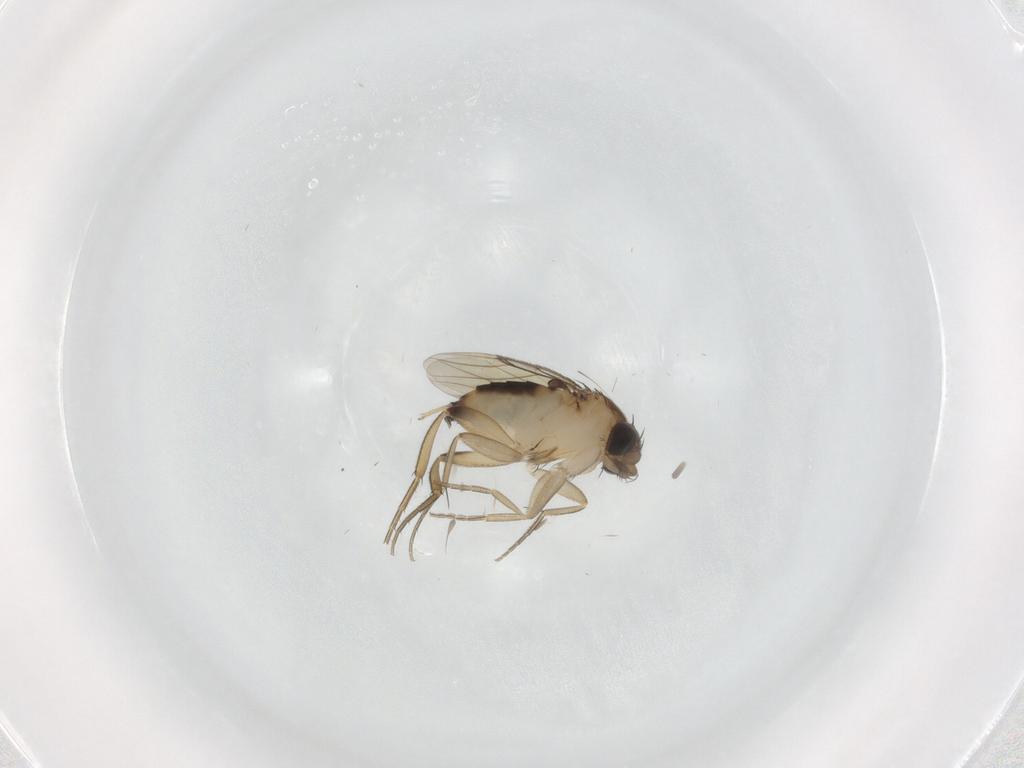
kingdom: Animalia
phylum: Arthropoda
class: Insecta
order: Diptera
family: Phoridae
